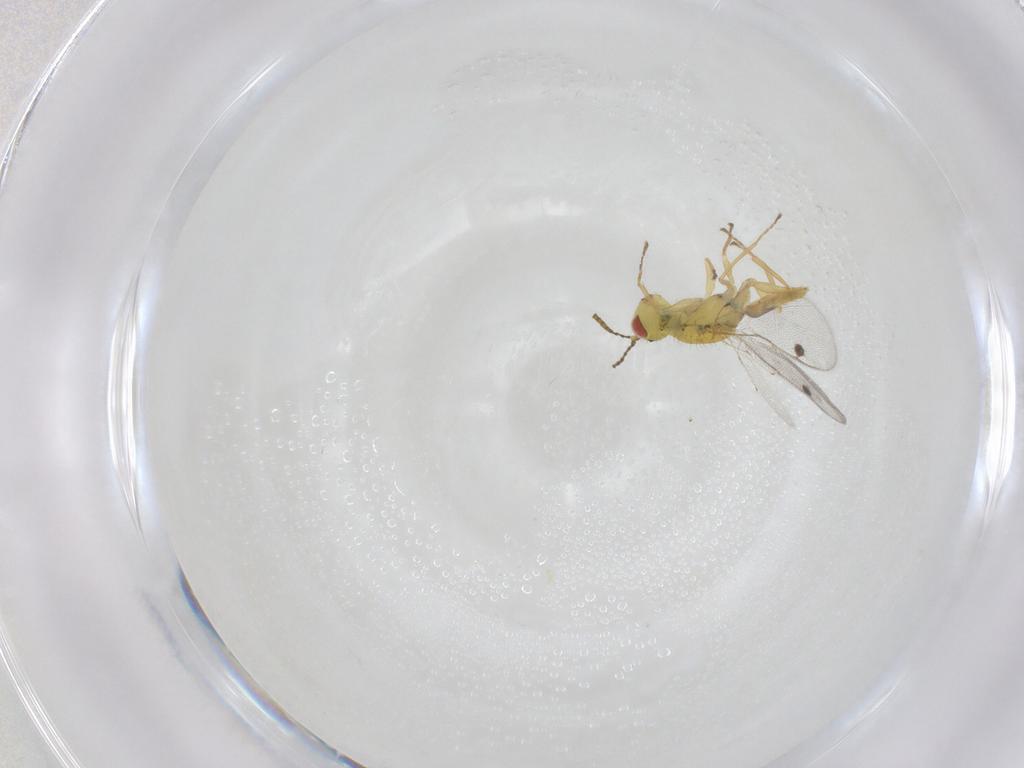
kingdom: Animalia
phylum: Arthropoda
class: Insecta
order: Hymenoptera
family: Megastigmidae
